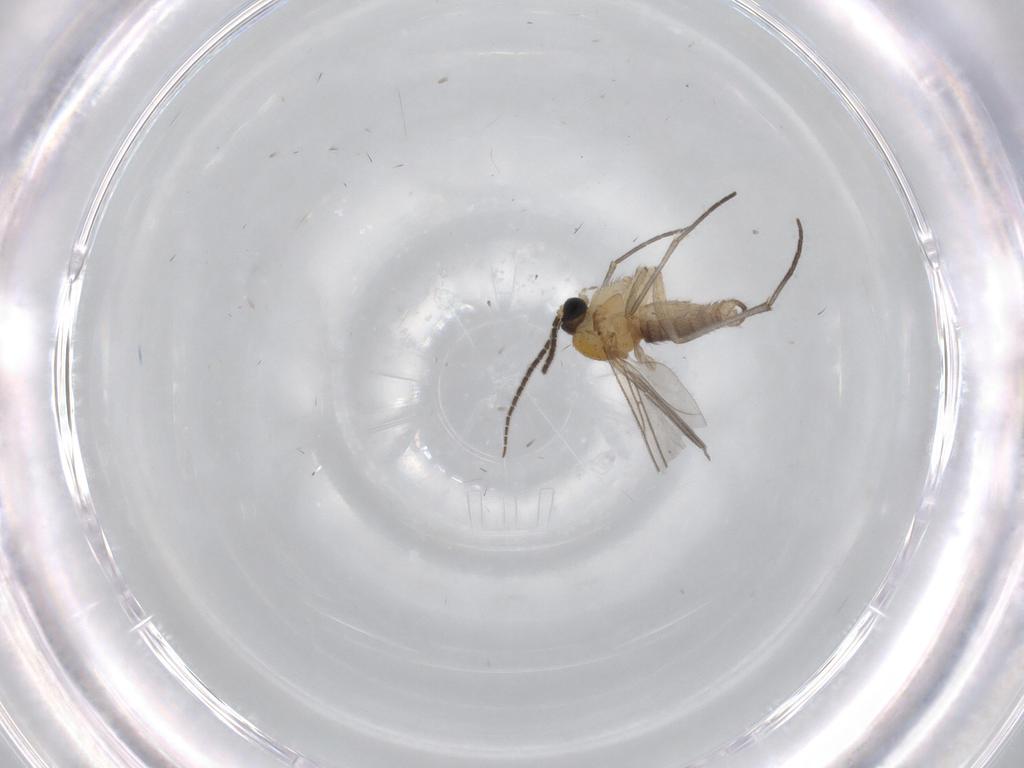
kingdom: Animalia
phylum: Arthropoda
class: Insecta
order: Diptera
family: Sciaridae
